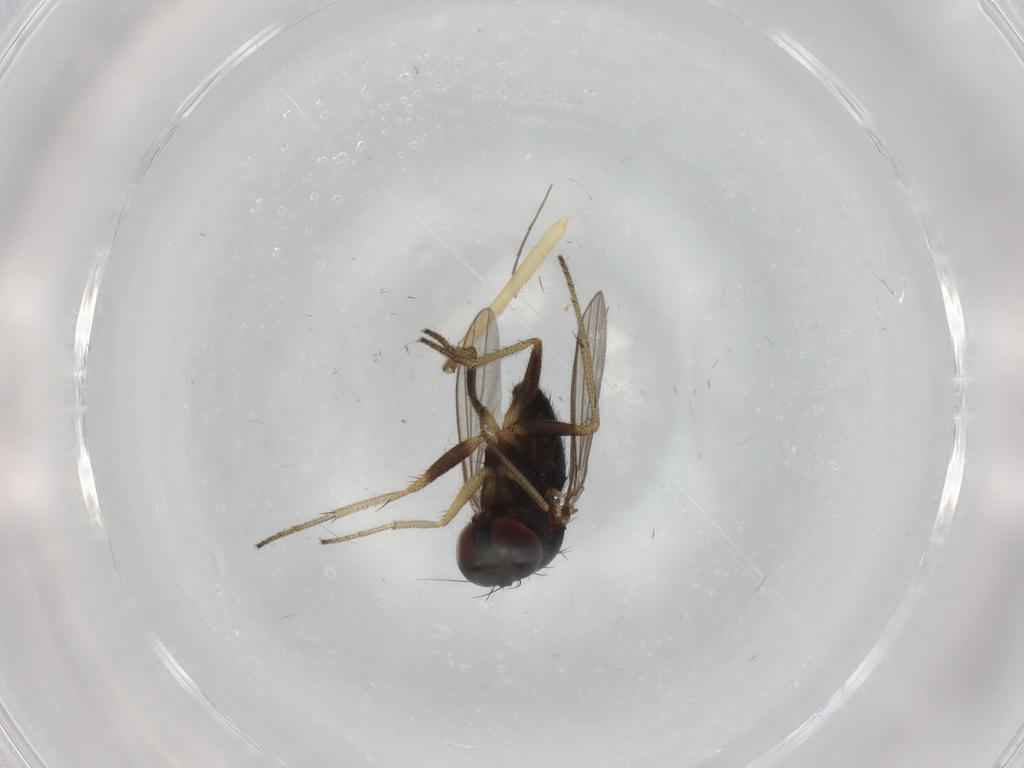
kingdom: Animalia
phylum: Arthropoda
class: Insecta
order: Diptera
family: Chironomidae
